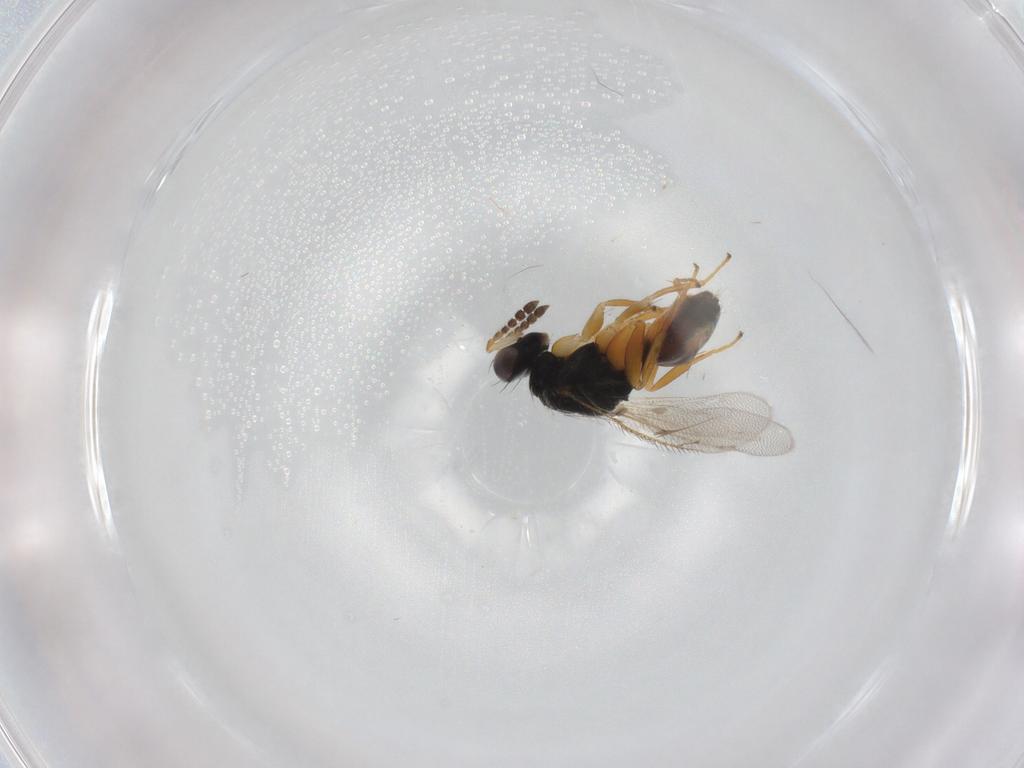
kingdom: Animalia
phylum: Arthropoda
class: Insecta
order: Hymenoptera
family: Eulophidae
